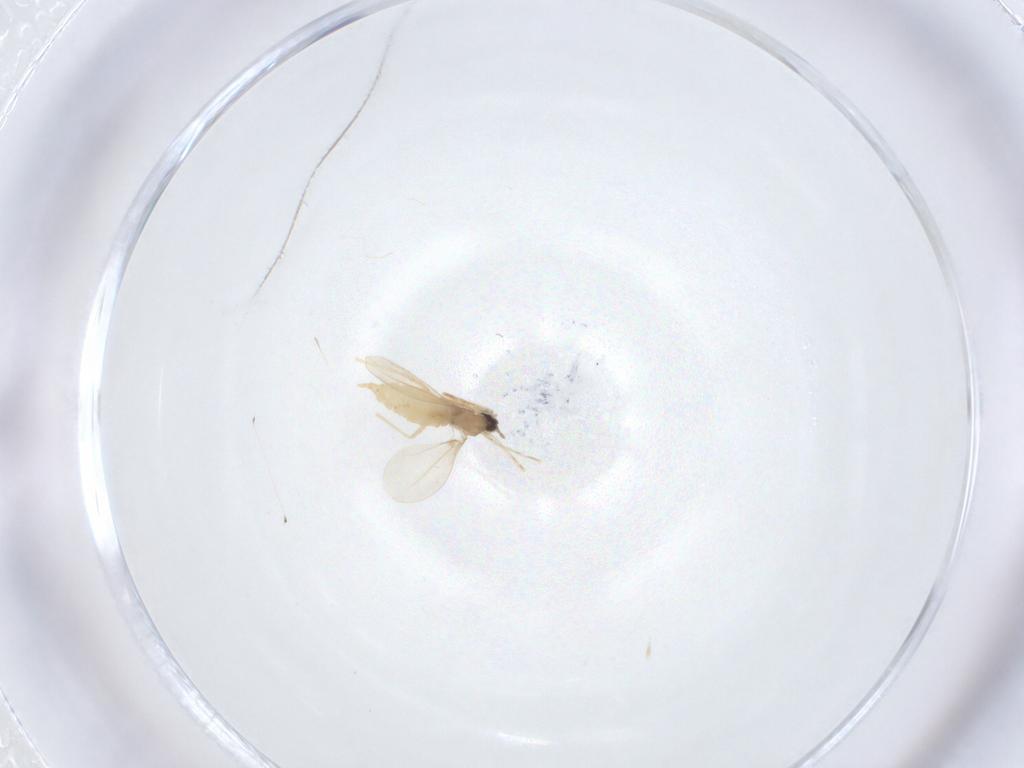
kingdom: Animalia
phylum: Arthropoda
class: Insecta
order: Diptera
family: Cecidomyiidae
